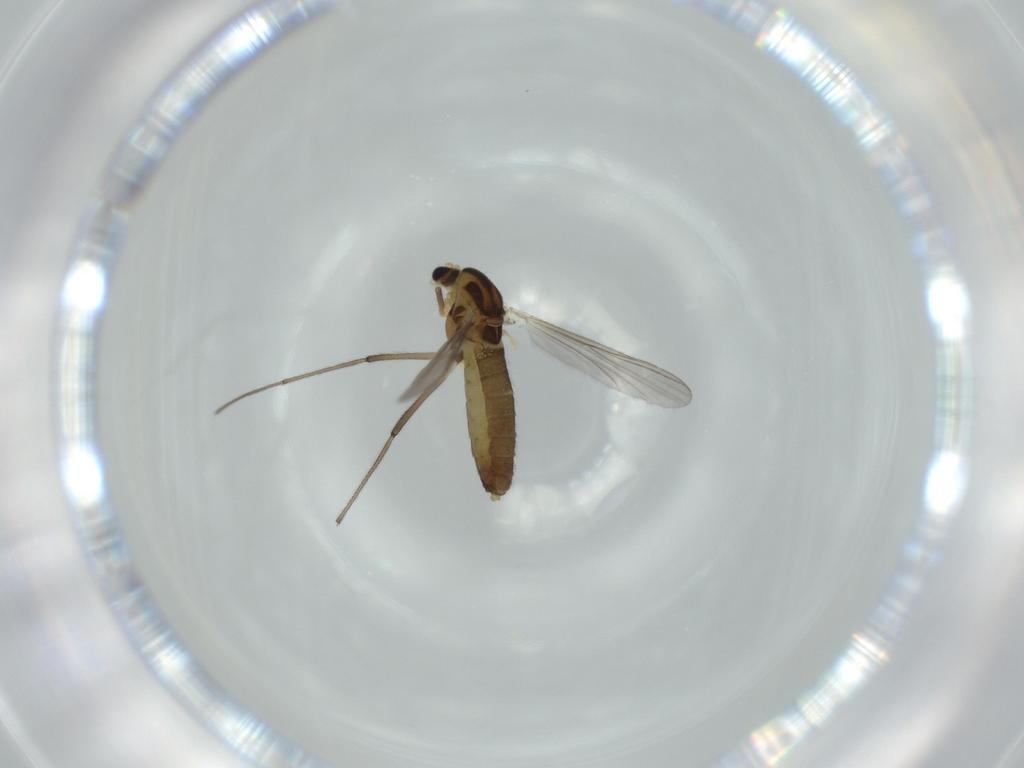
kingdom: Animalia
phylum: Arthropoda
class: Insecta
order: Diptera
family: Chironomidae
